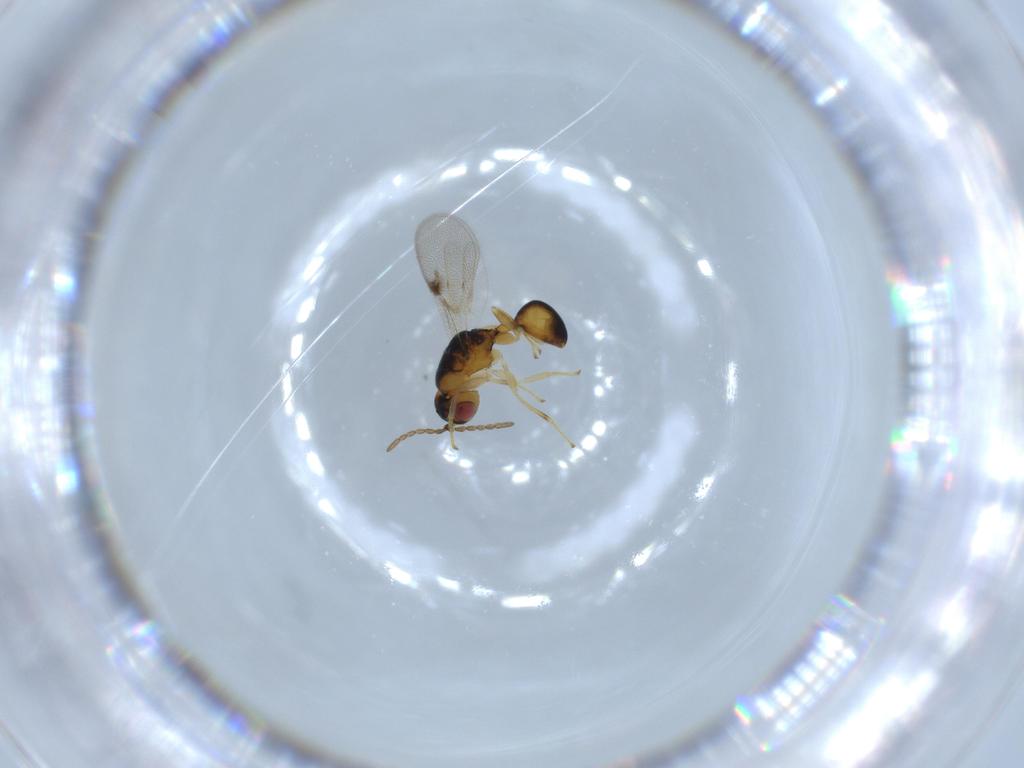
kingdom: Animalia
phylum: Arthropoda
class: Insecta
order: Hymenoptera
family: Eurytomidae
